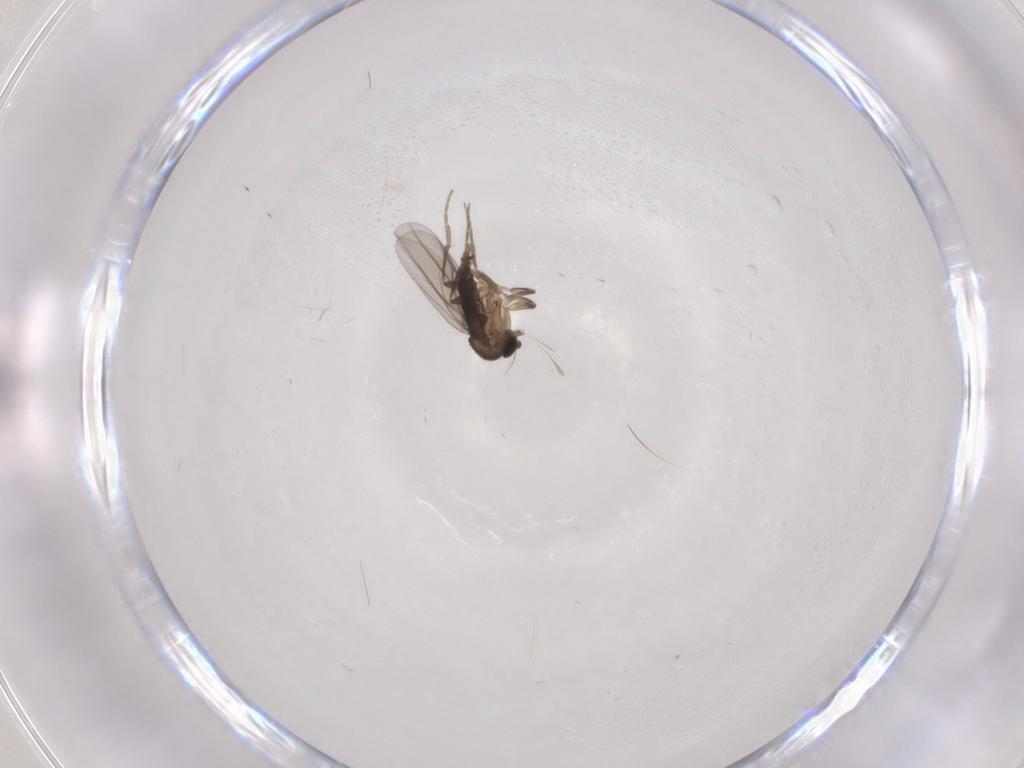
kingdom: Animalia
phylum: Arthropoda
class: Insecta
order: Diptera
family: Phoridae
